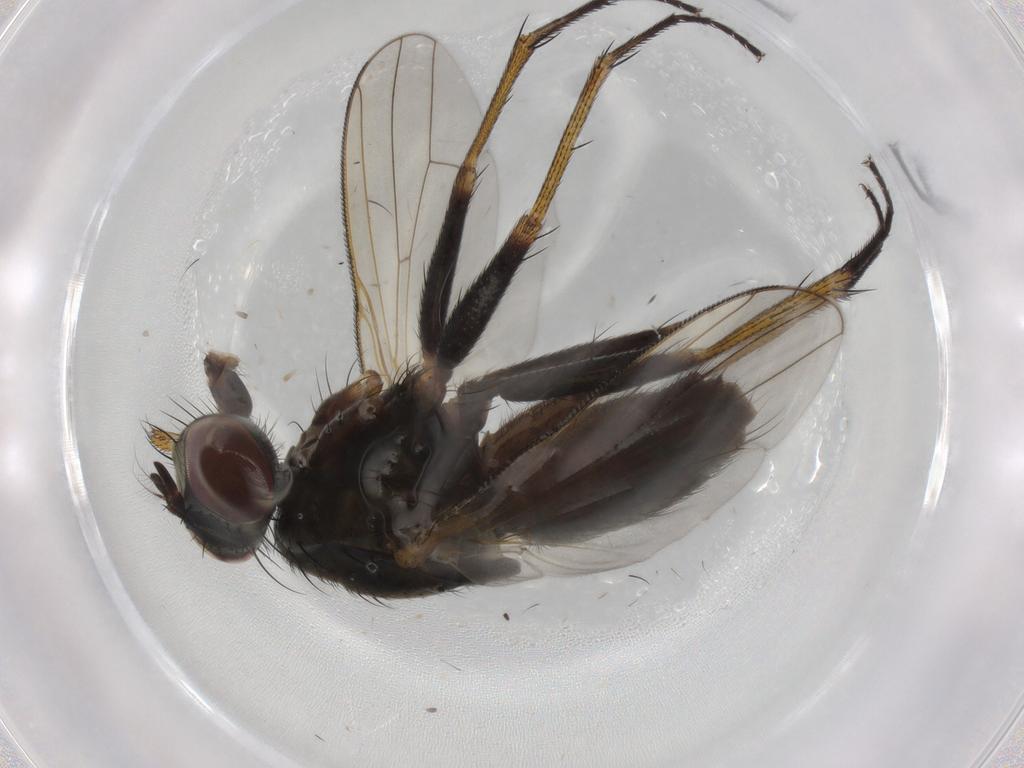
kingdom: Animalia
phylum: Arthropoda
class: Insecta
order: Diptera
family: Muscidae
